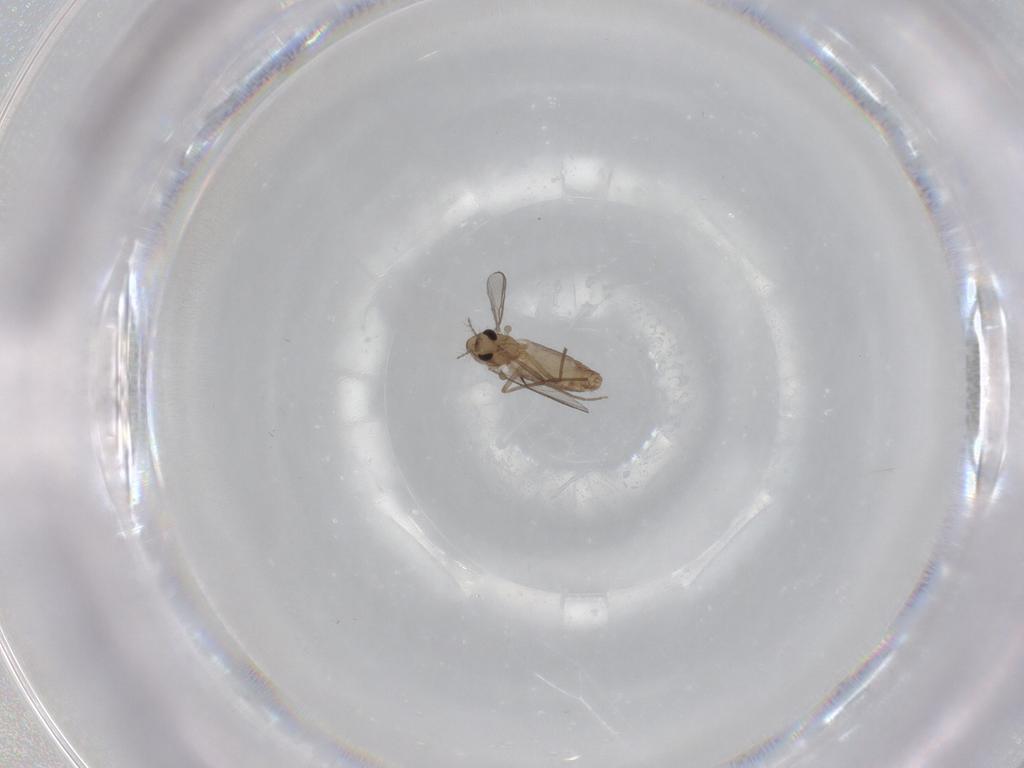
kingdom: Animalia
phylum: Arthropoda
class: Insecta
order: Diptera
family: Chironomidae
